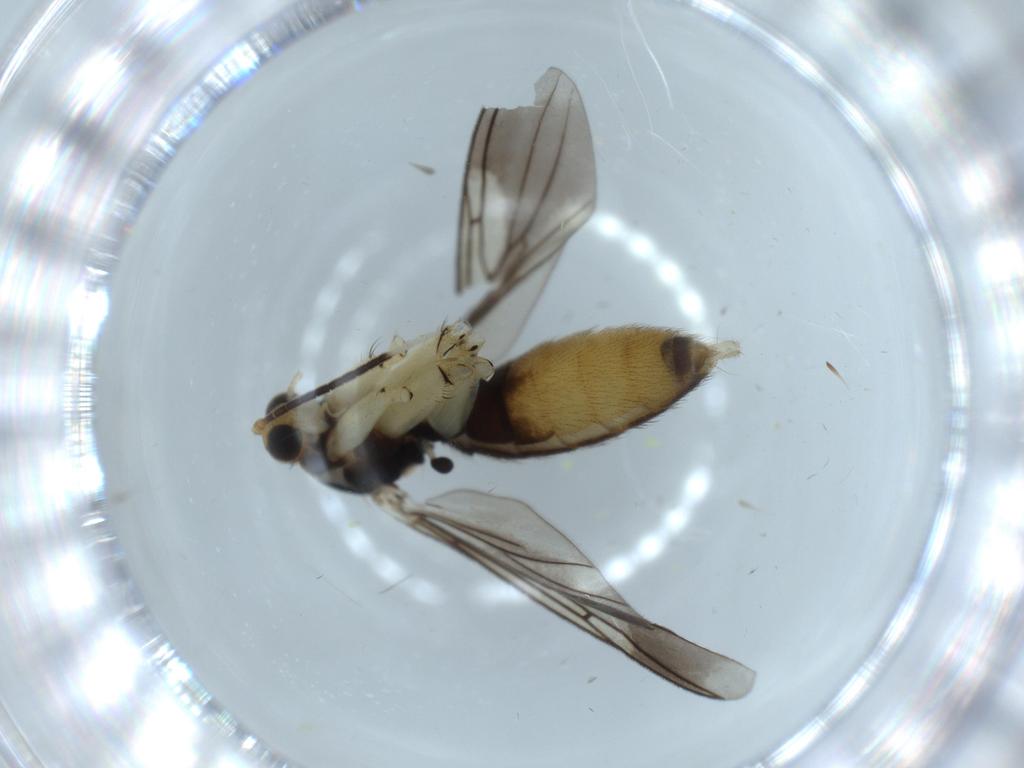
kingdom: Animalia
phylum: Arthropoda
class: Insecta
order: Diptera
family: Mycetophilidae
